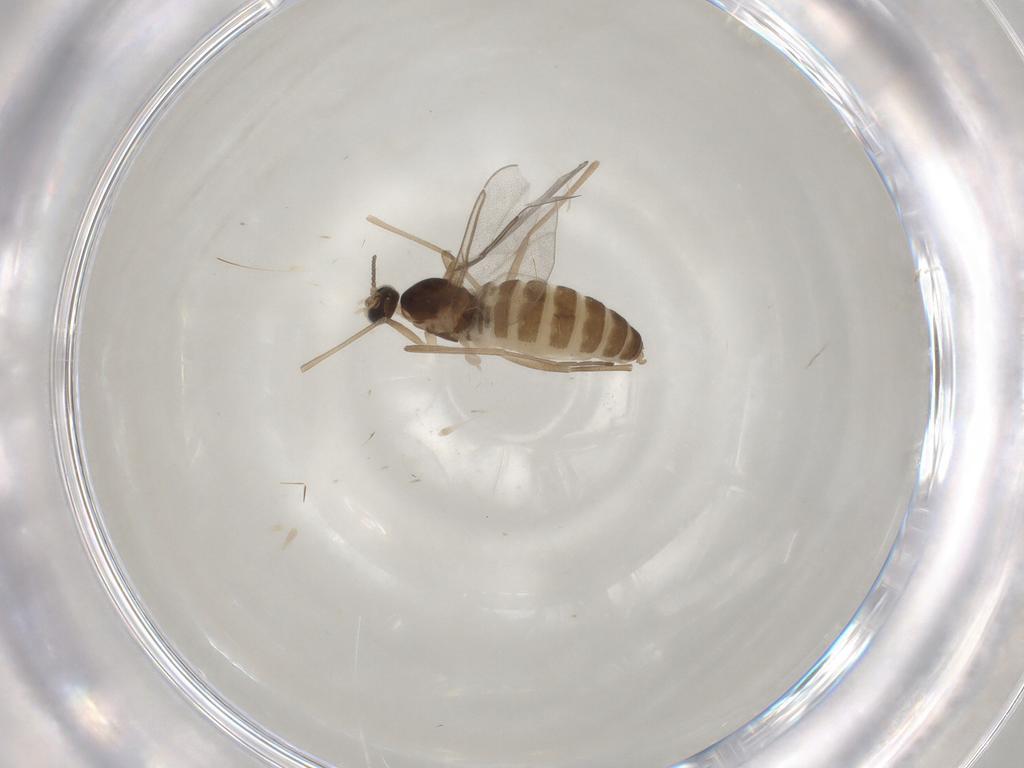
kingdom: Animalia
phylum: Arthropoda
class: Insecta
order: Diptera
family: Cecidomyiidae
